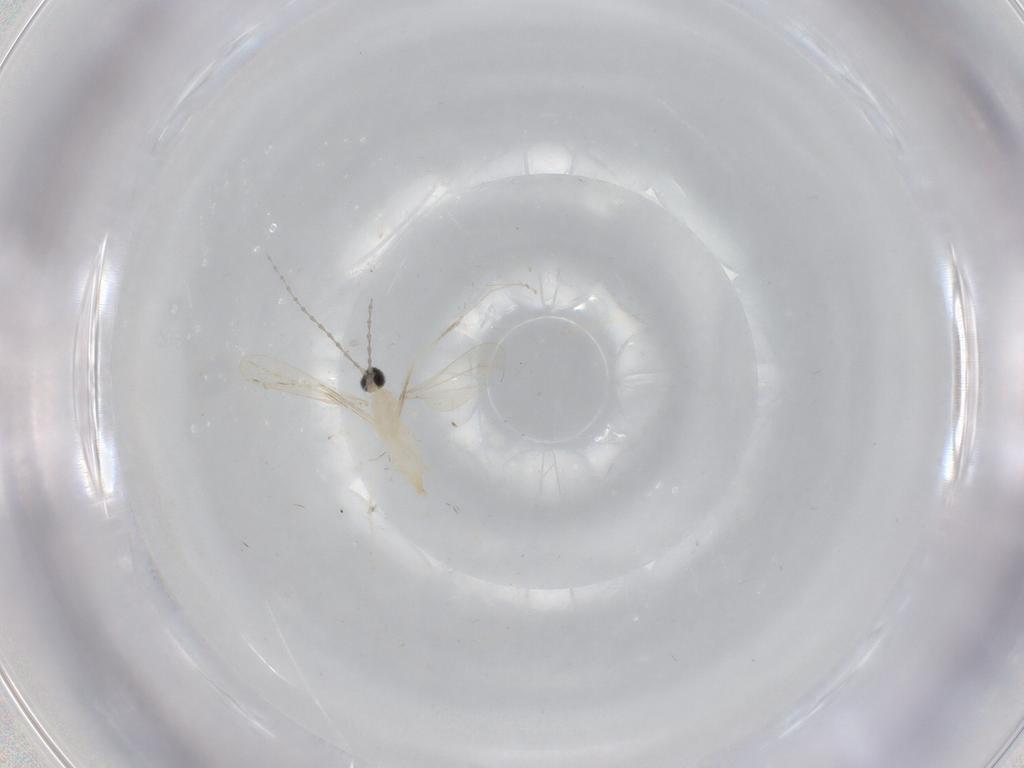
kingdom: Animalia
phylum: Arthropoda
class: Insecta
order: Diptera
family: Cecidomyiidae
